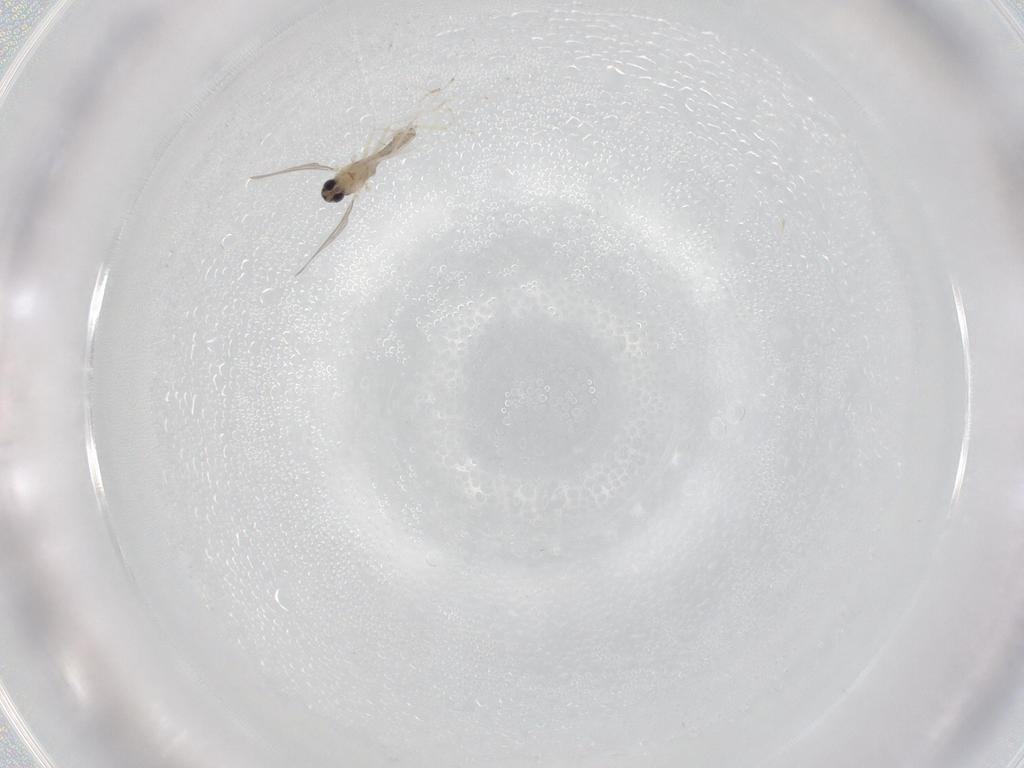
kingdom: Animalia
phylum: Arthropoda
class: Insecta
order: Diptera
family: Cecidomyiidae
